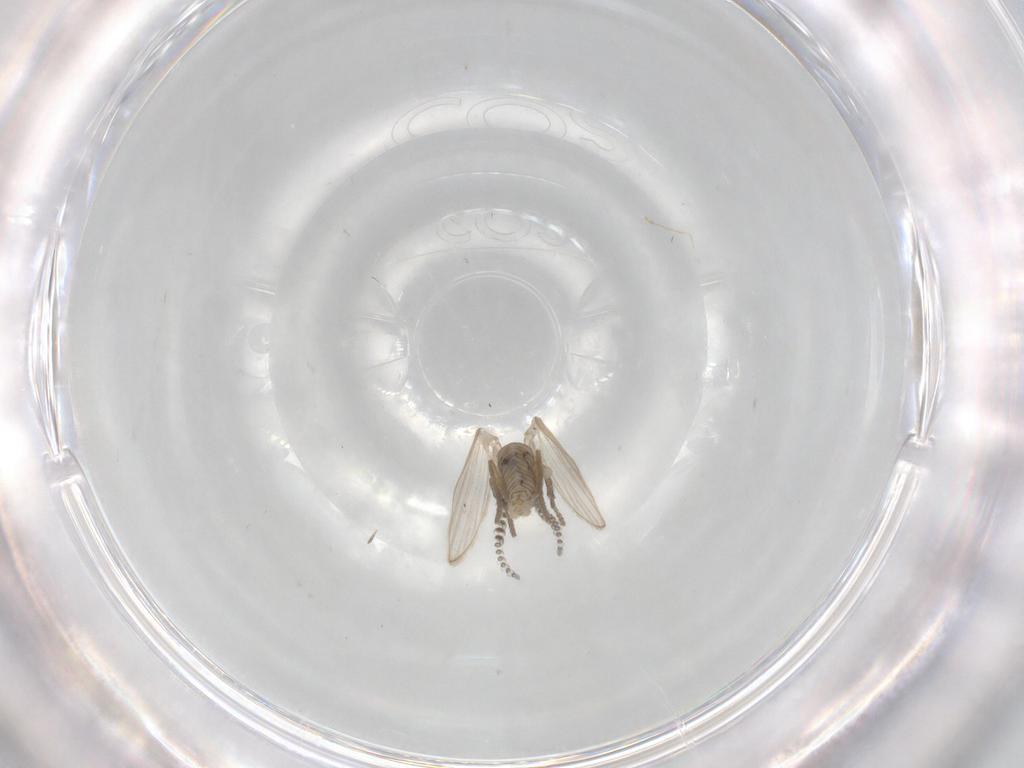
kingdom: Animalia
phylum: Arthropoda
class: Insecta
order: Diptera
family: Psychodidae
